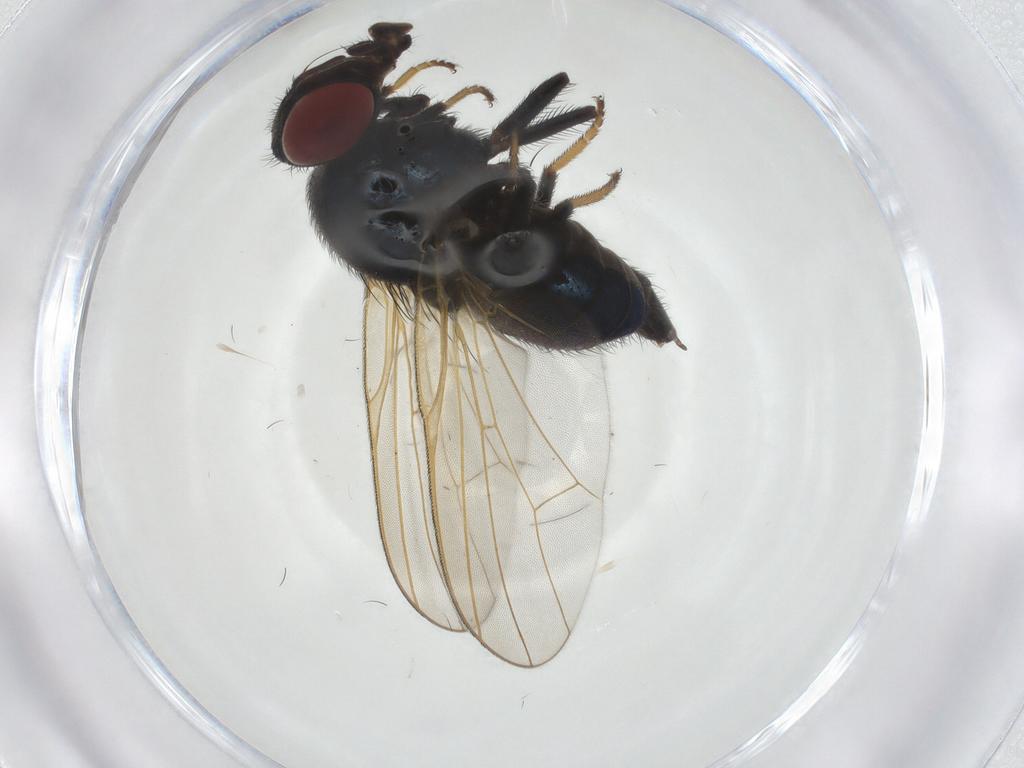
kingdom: Animalia
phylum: Arthropoda
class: Insecta
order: Diptera
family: Lonchaeidae
